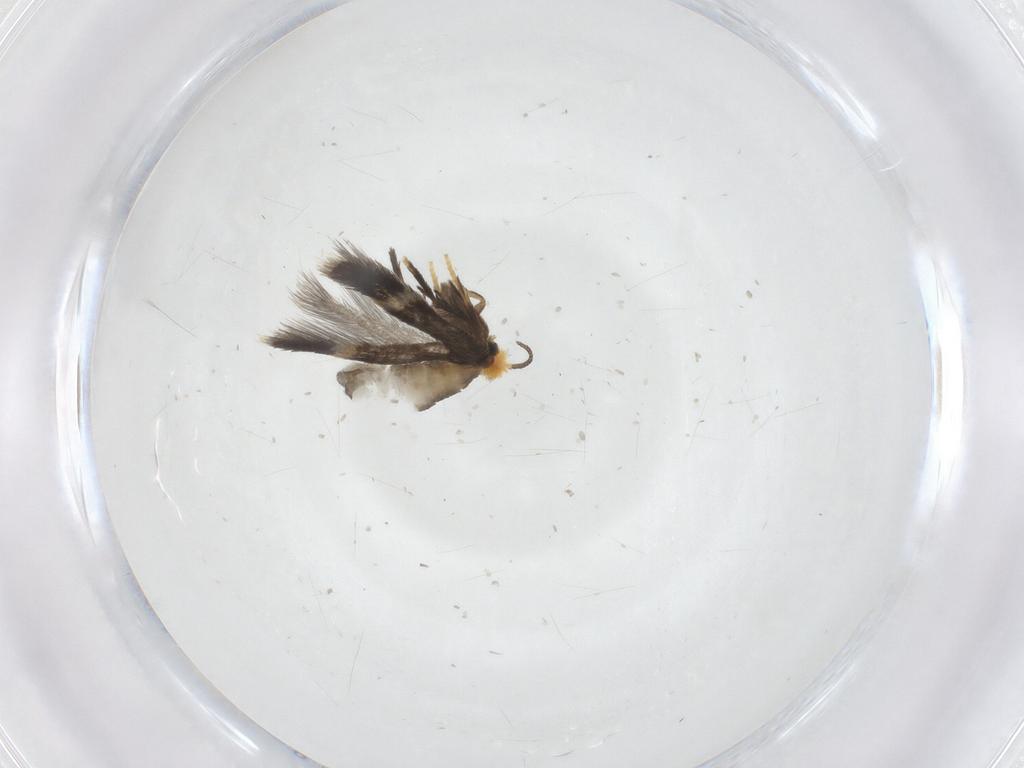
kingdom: Animalia
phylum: Arthropoda
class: Insecta
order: Lepidoptera
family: Nepticulidae
